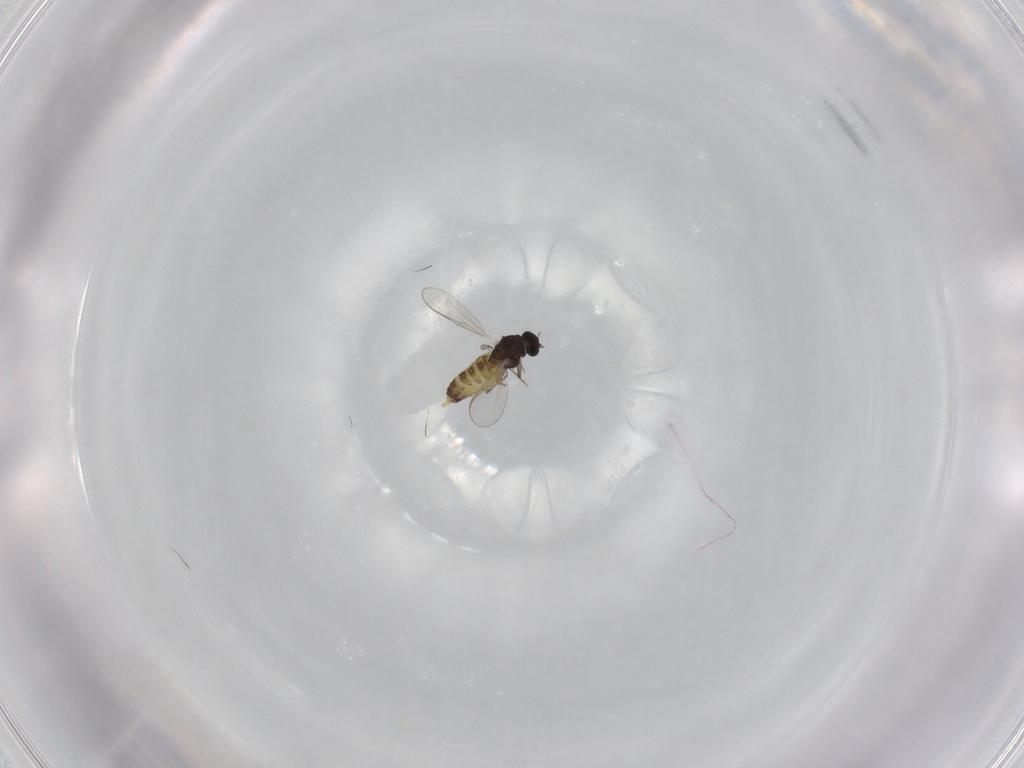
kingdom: Animalia
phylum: Arthropoda
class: Insecta
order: Diptera
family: Chironomidae
